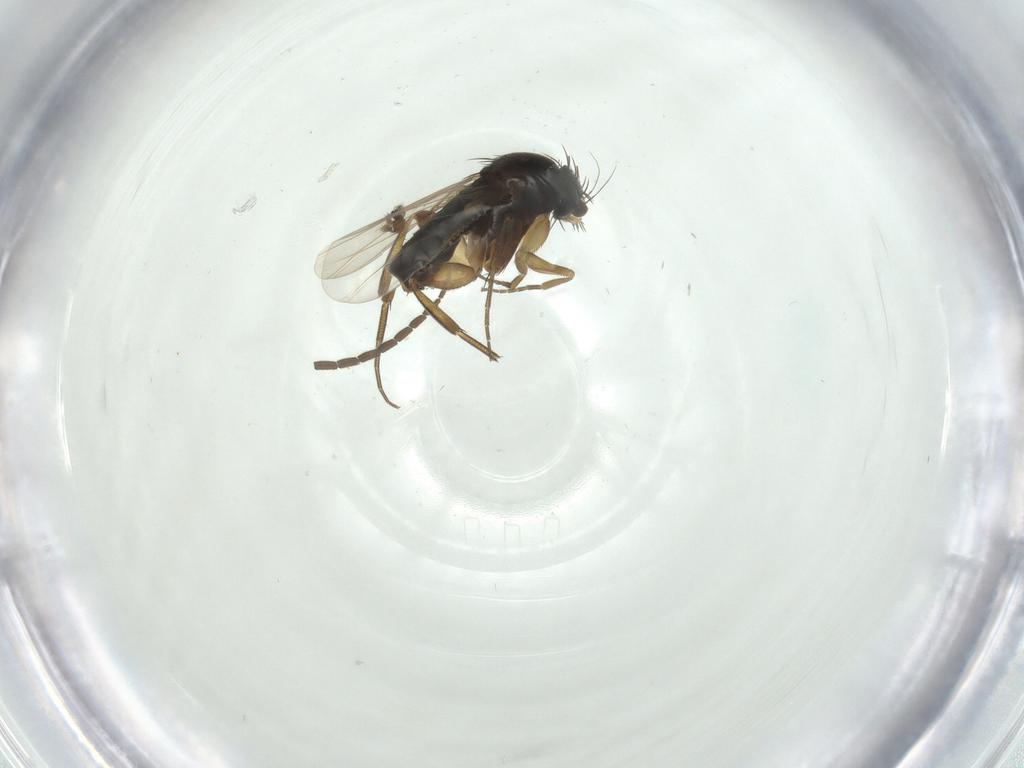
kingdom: Animalia
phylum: Arthropoda
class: Insecta
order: Diptera
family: Mycetophilidae
